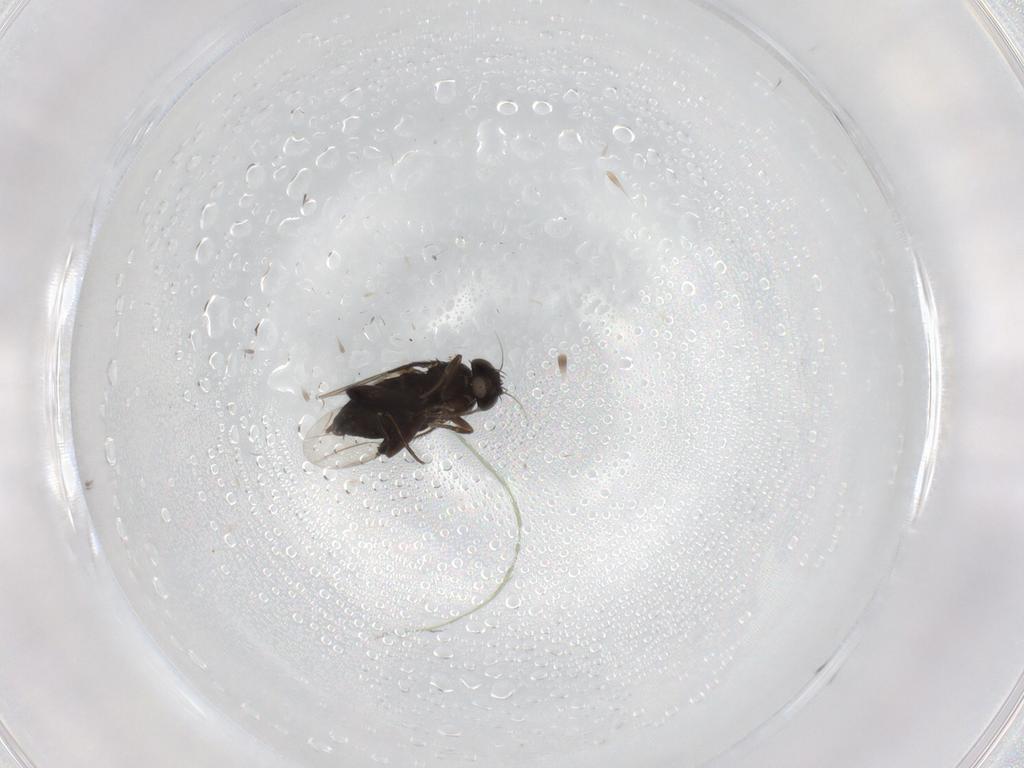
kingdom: Animalia
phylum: Arthropoda
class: Insecta
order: Diptera
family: Phoridae
